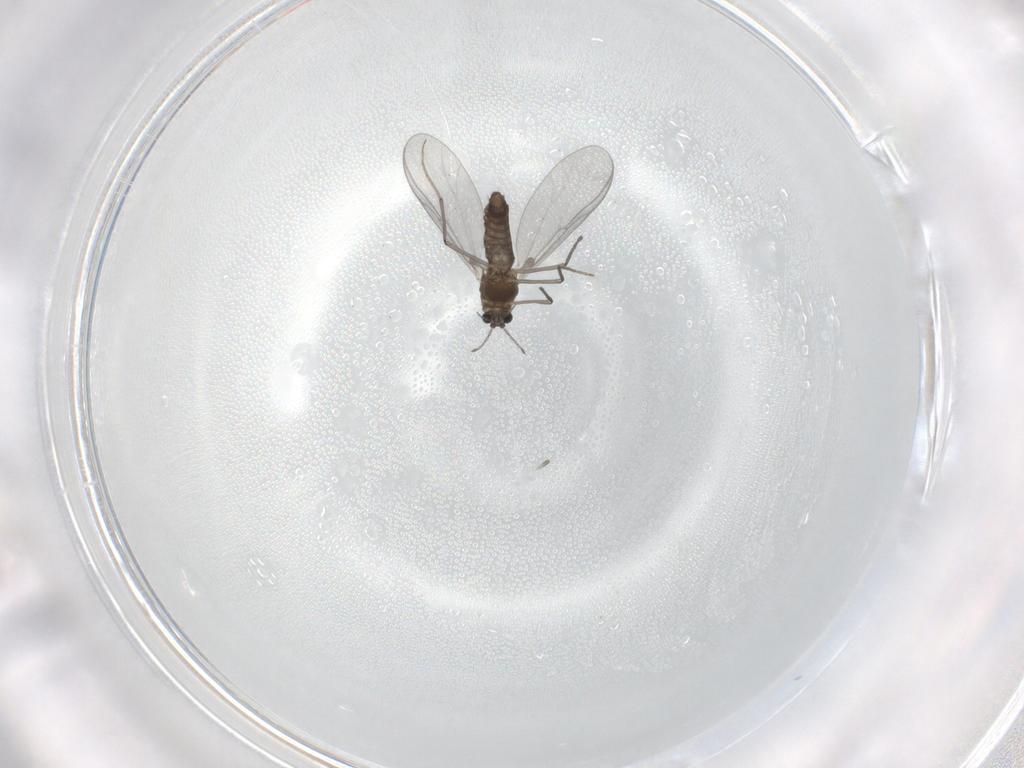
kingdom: Animalia
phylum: Arthropoda
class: Insecta
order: Diptera
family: Chironomidae
